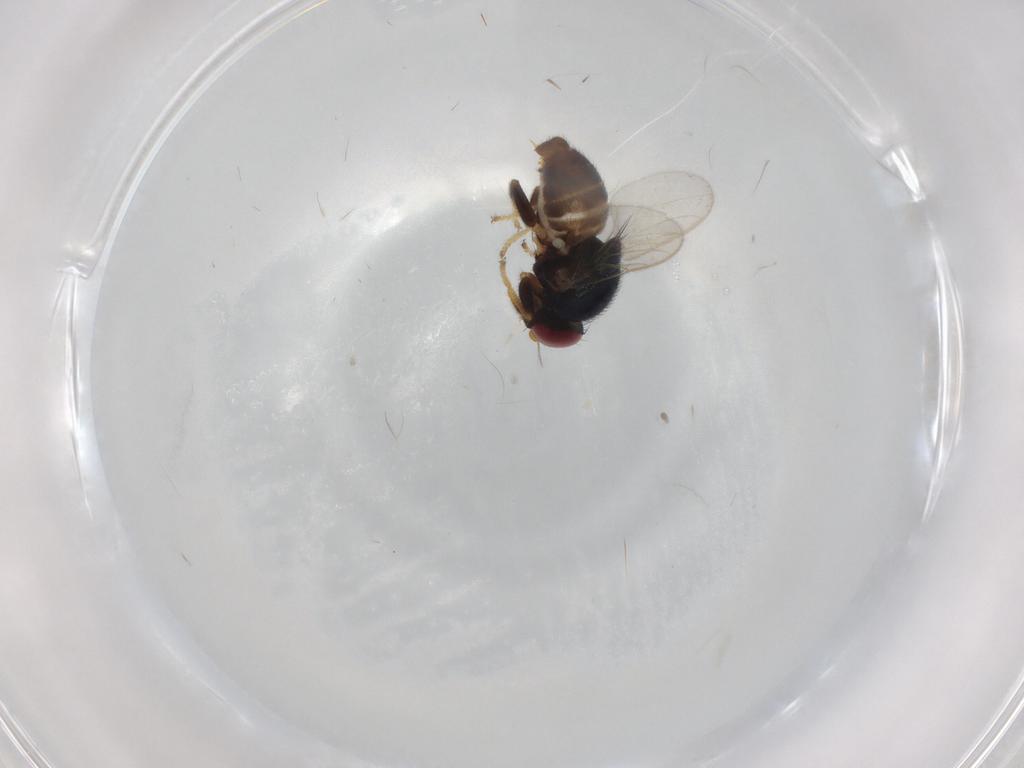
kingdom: Animalia
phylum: Arthropoda
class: Insecta
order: Diptera
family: Chloropidae
